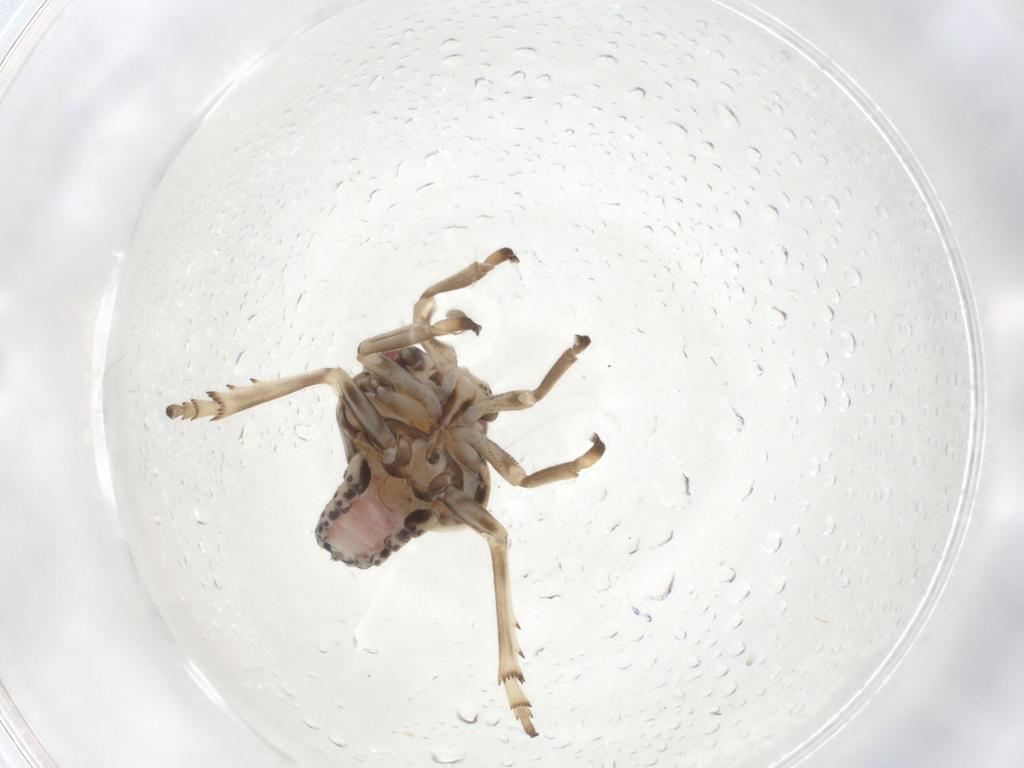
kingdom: Animalia
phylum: Arthropoda
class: Insecta
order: Hemiptera
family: Tropiduchidae
